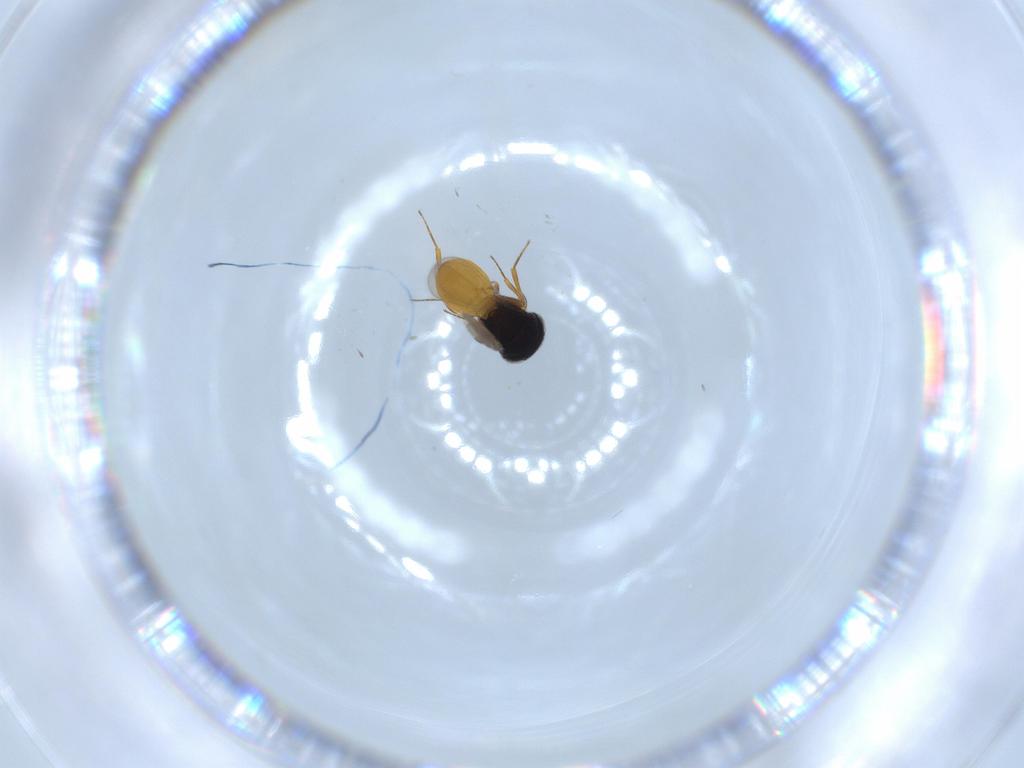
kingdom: Animalia
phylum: Arthropoda
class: Insecta
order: Hymenoptera
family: Scelionidae
